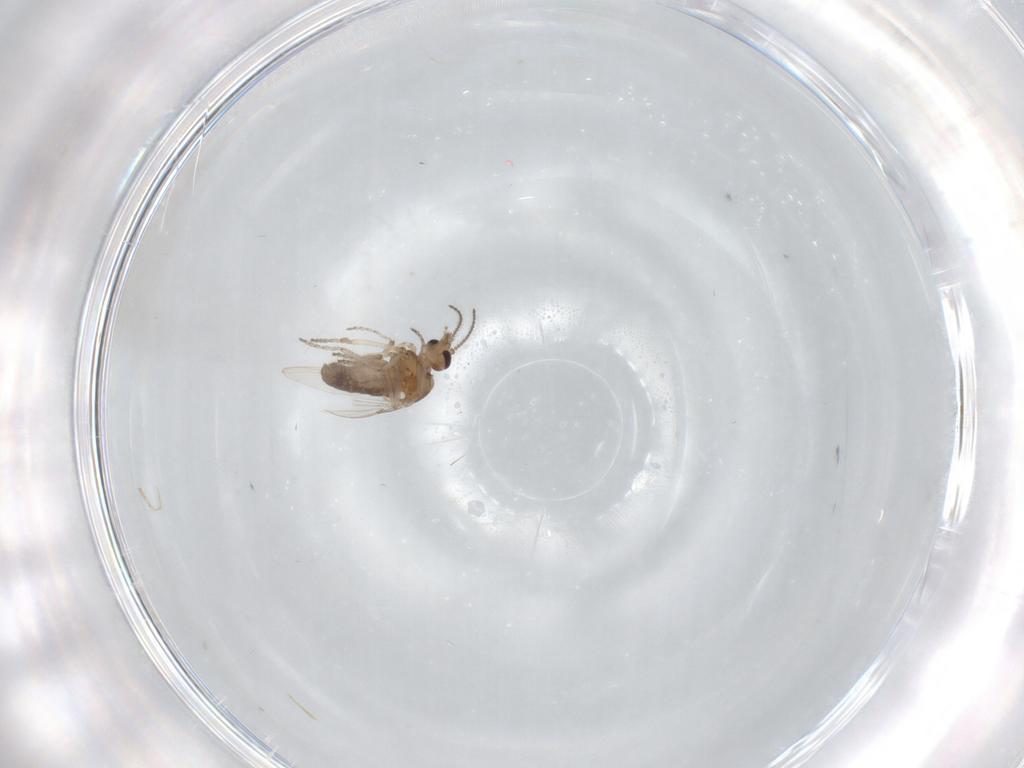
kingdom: Animalia
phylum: Arthropoda
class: Insecta
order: Diptera
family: Ceratopogonidae
